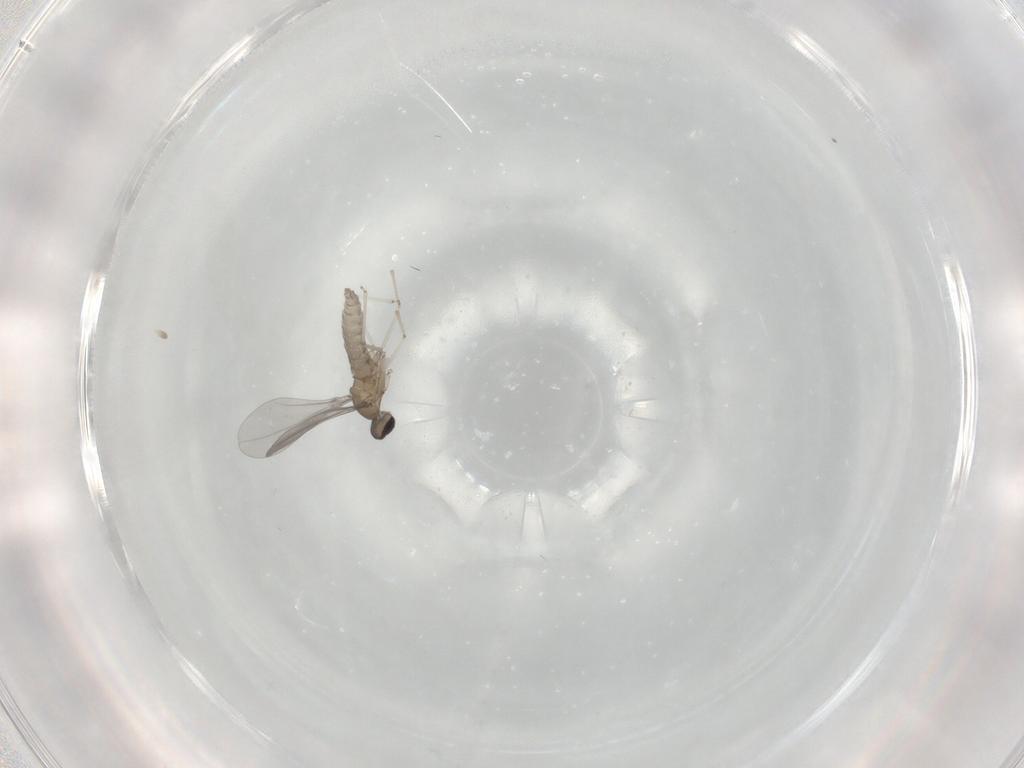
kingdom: Animalia
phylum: Arthropoda
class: Insecta
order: Diptera
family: Cecidomyiidae
